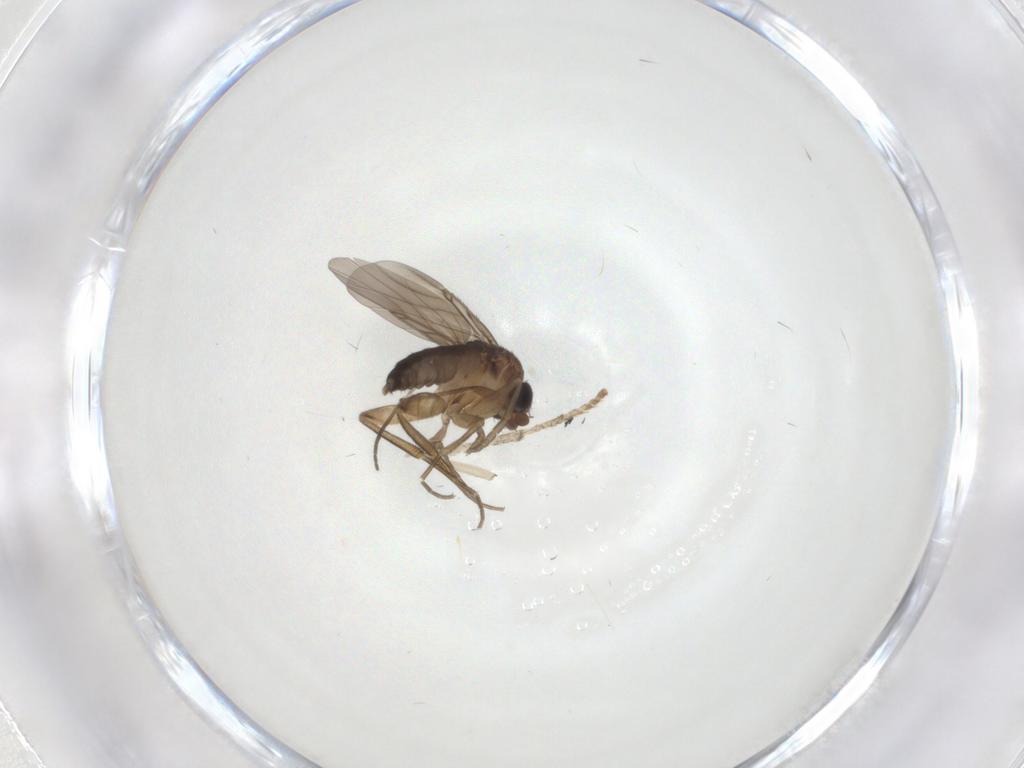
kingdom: Animalia
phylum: Arthropoda
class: Insecta
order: Diptera
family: Psychodidae
